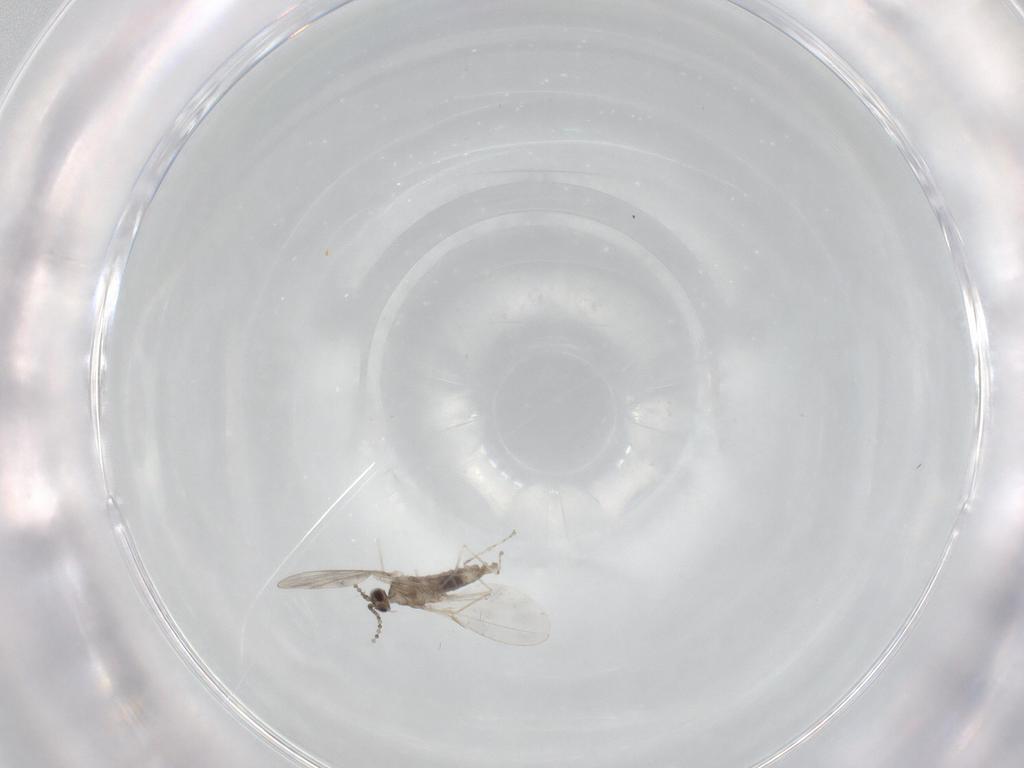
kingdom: Animalia
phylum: Arthropoda
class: Insecta
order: Diptera
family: Cecidomyiidae
